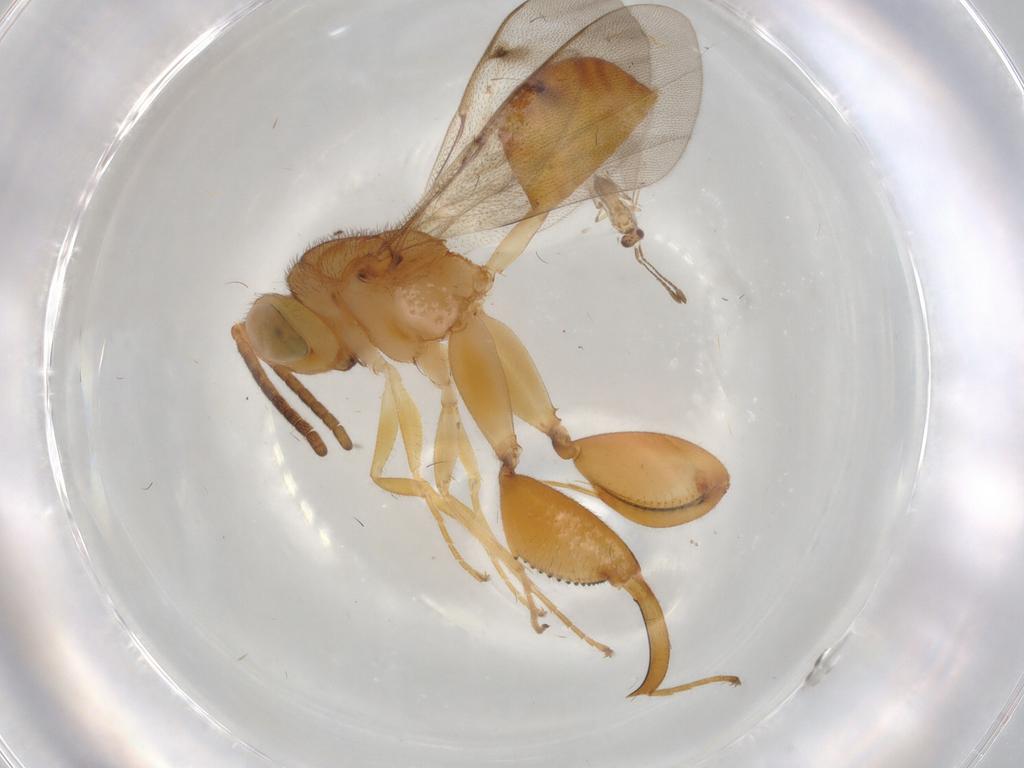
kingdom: Animalia
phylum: Arthropoda
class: Insecta
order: Hymenoptera
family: Chalcididae
